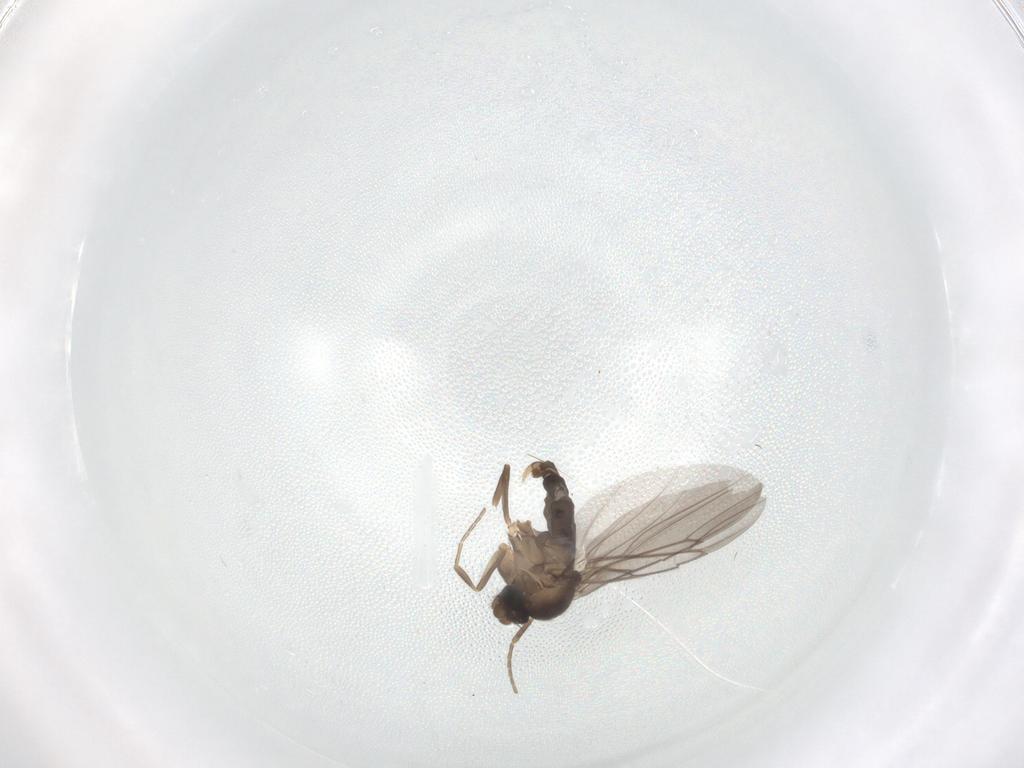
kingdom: Animalia
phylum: Arthropoda
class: Insecta
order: Diptera
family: Phoridae
